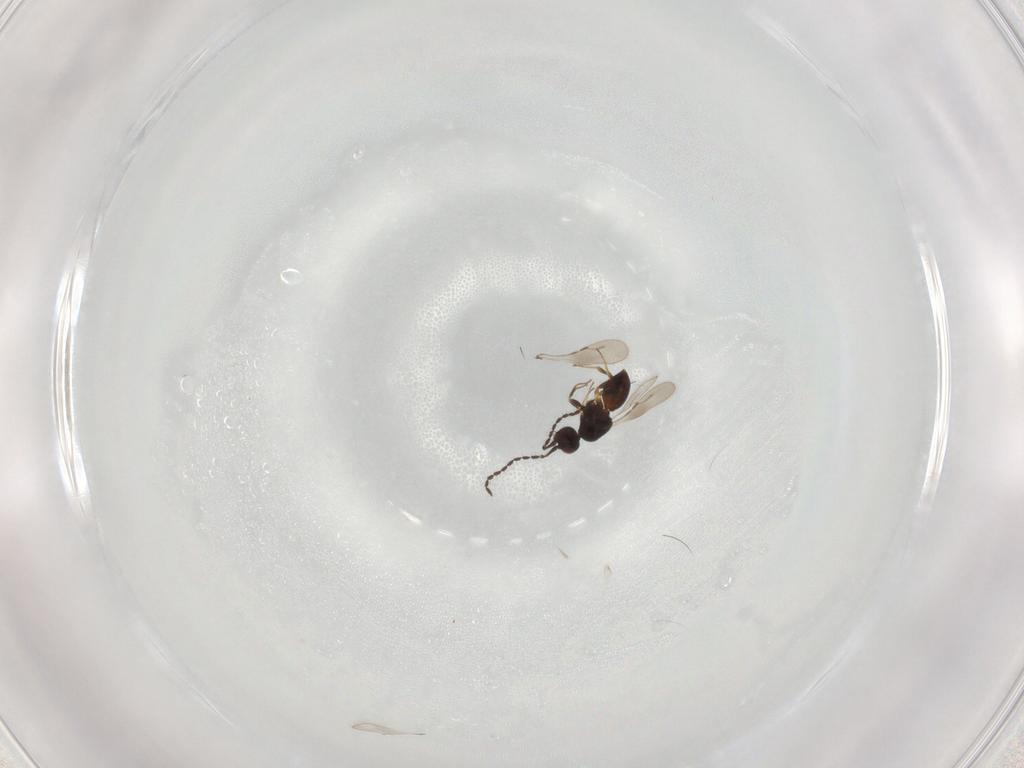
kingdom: Animalia
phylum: Arthropoda
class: Insecta
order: Hymenoptera
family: Ceraphronidae
